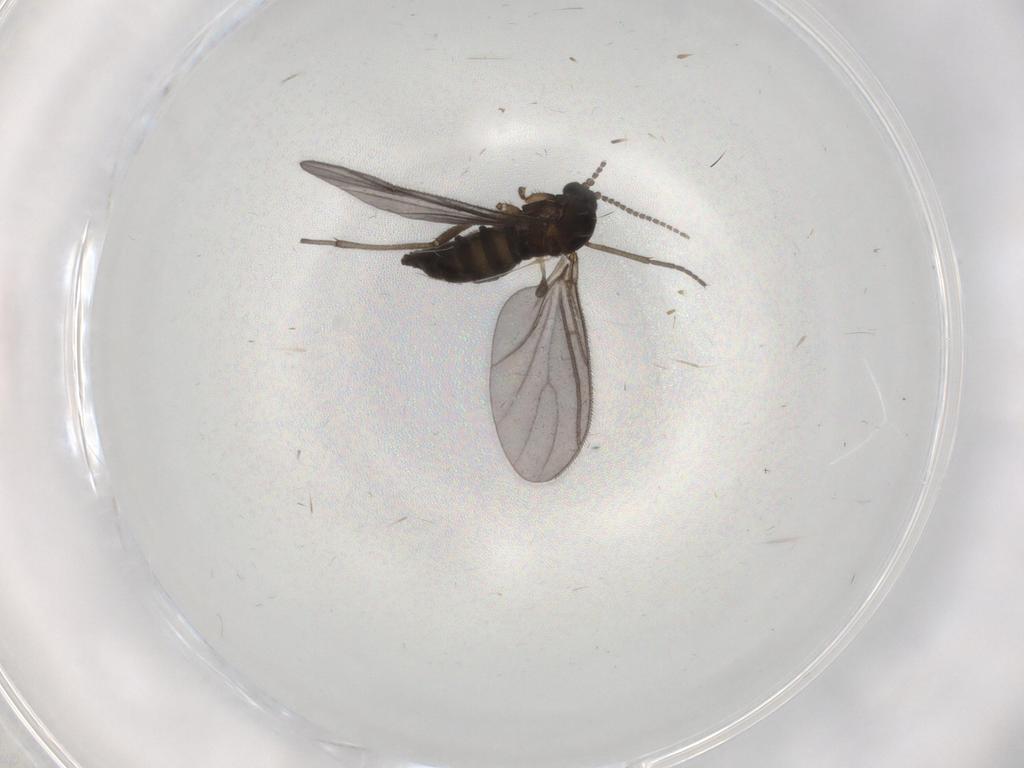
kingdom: Animalia
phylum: Arthropoda
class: Insecta
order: Diptera
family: Sciaridae
